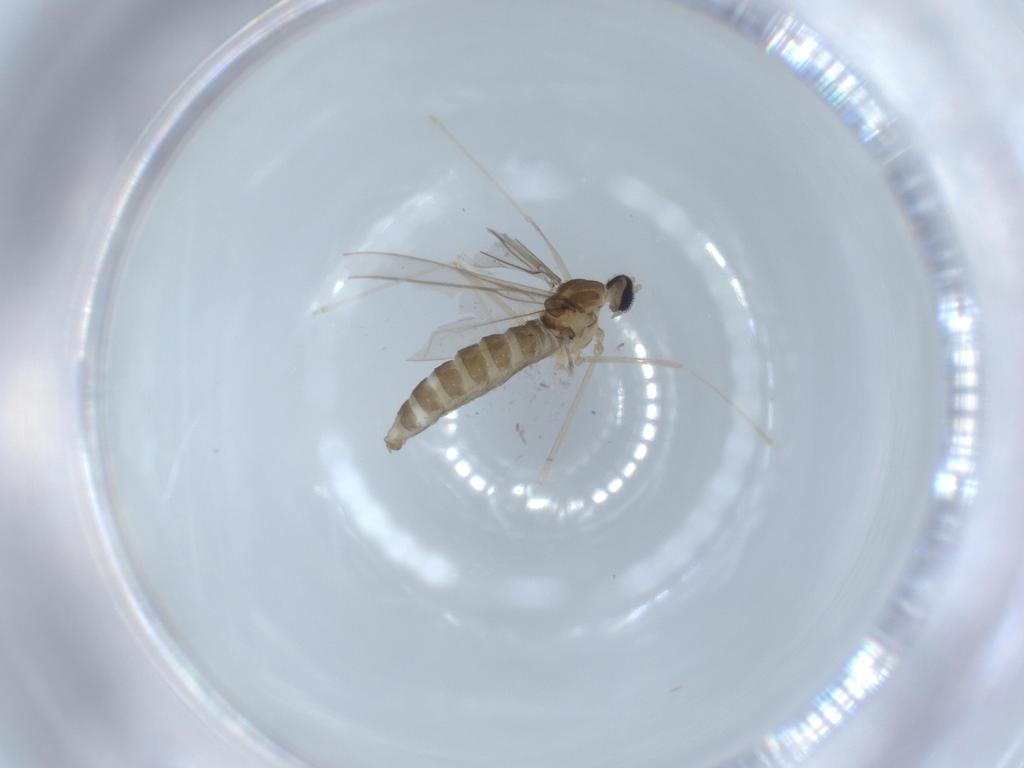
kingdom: Animalia
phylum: Arthropoda
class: Insecta
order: Diptera
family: Cecidomyiidae
